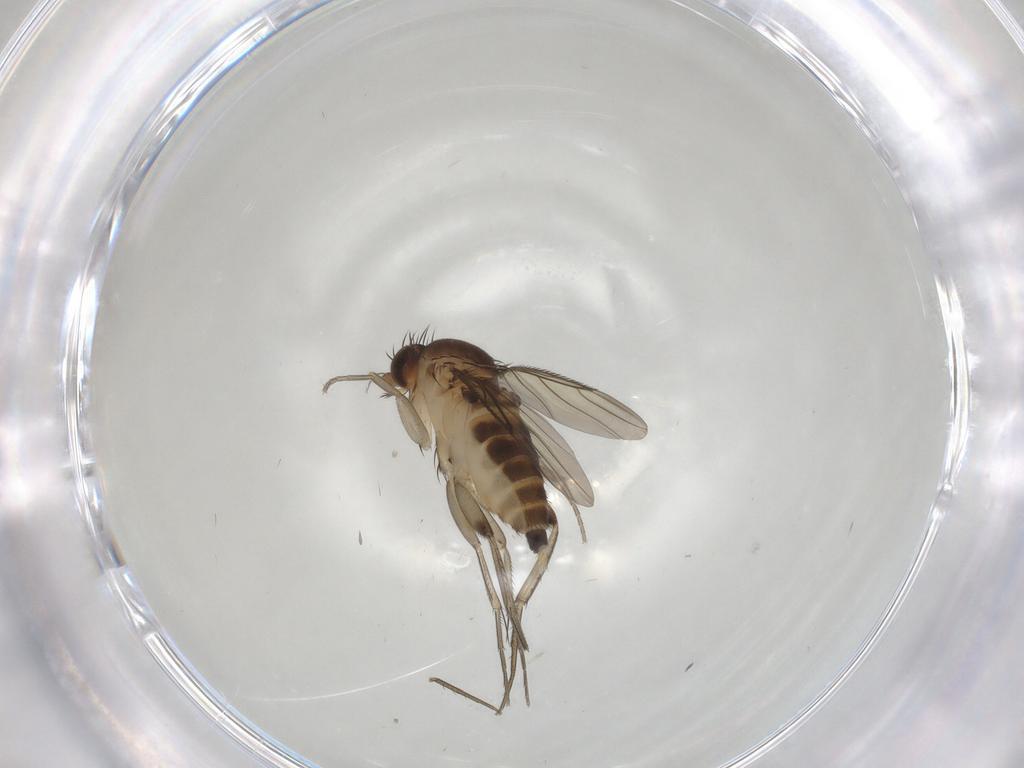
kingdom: Animalia
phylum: Arthropoda
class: Insecta
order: Diptera
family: Phoridae
